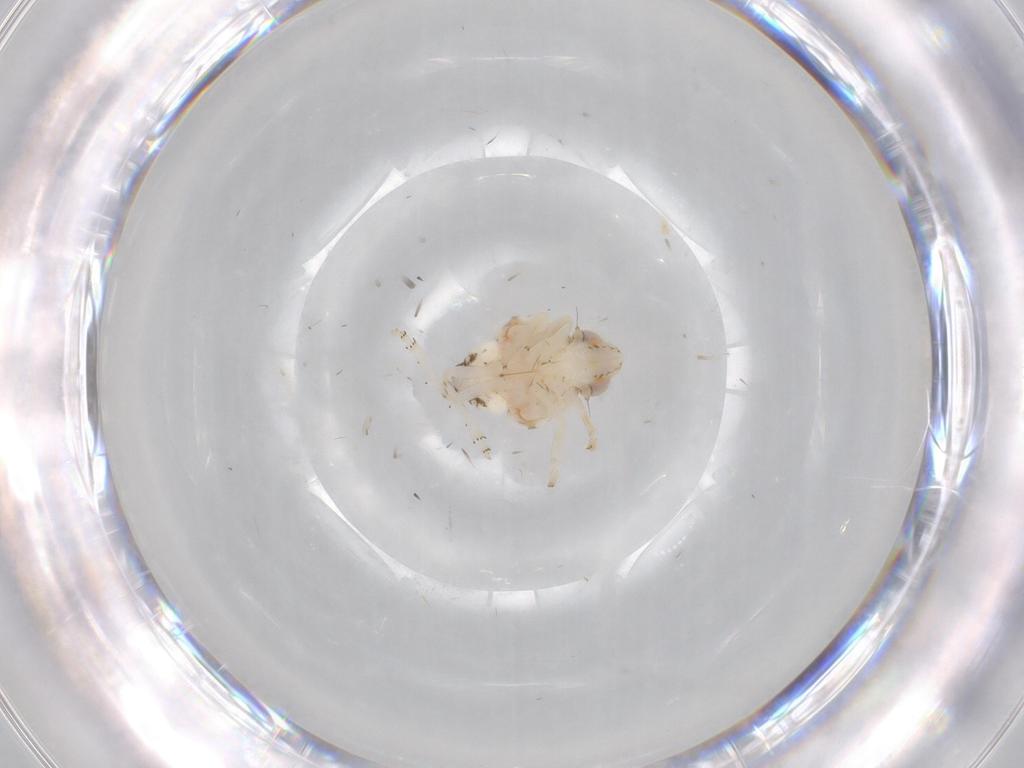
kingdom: Animalia
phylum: Arthropoda
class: Insecta
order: Hemiptera
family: Nogodinidae
